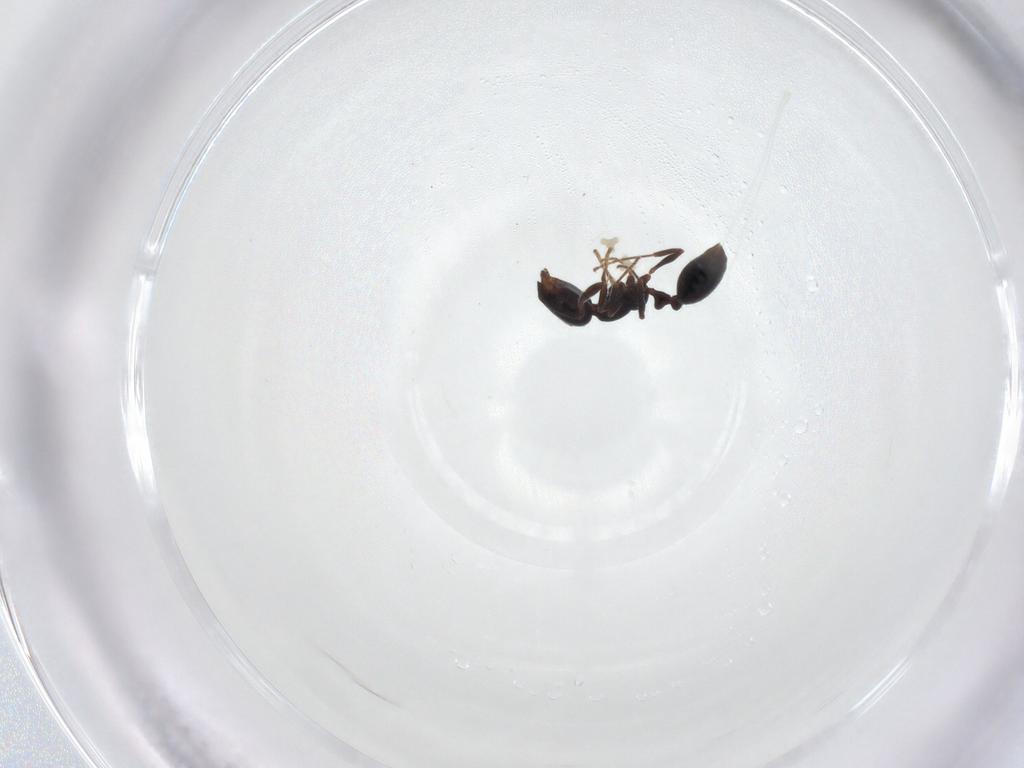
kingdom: Animalia
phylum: Arthropoda
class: Insecta
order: Hymenoptera
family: Formicidae
